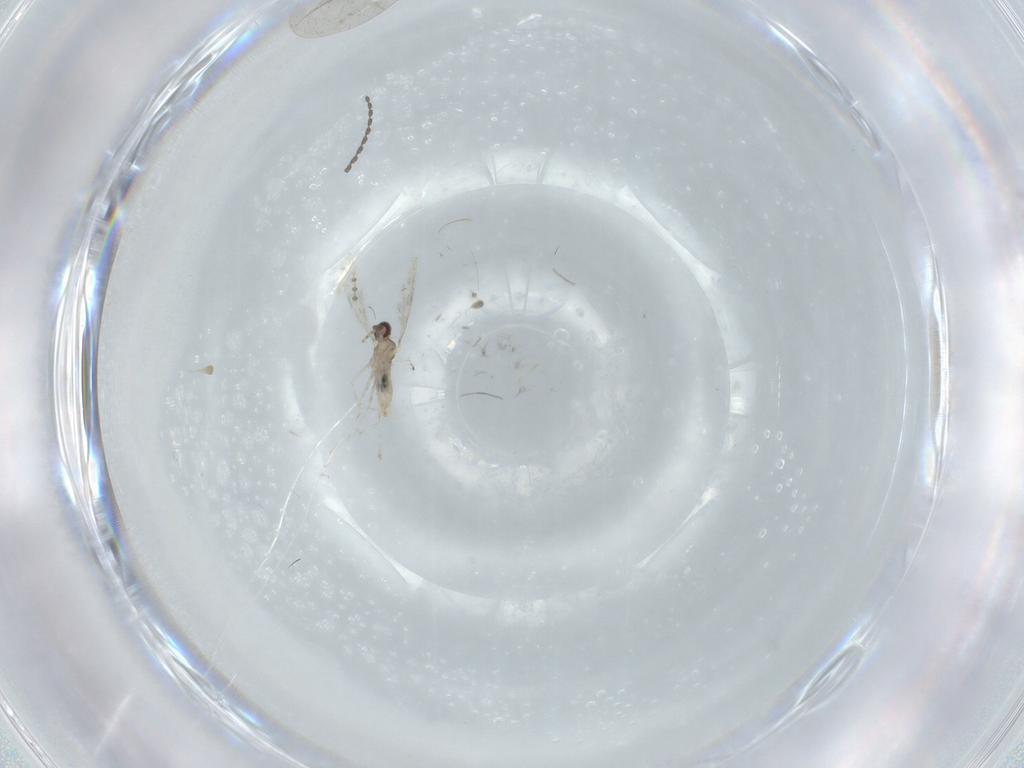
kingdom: Animalia
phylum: Arthropoda
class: Insecta
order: Diptera
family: Cecidomyiidae
